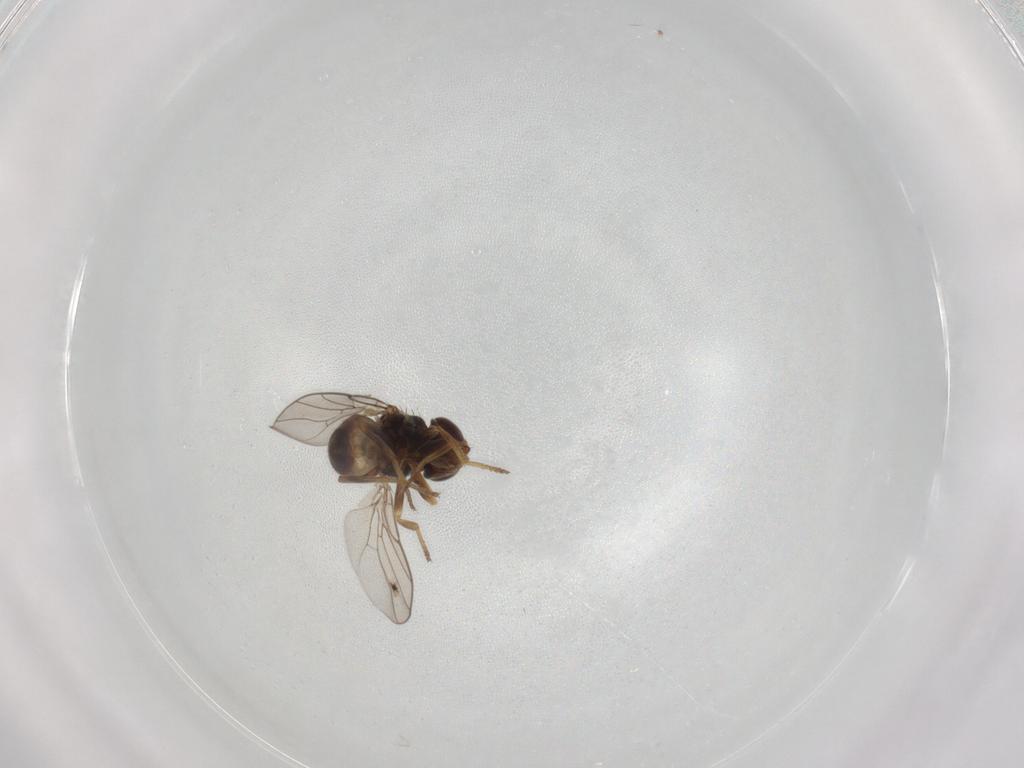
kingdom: Animalia
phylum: Arthropoda
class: Insecta
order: Diptera
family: Chloropidae
